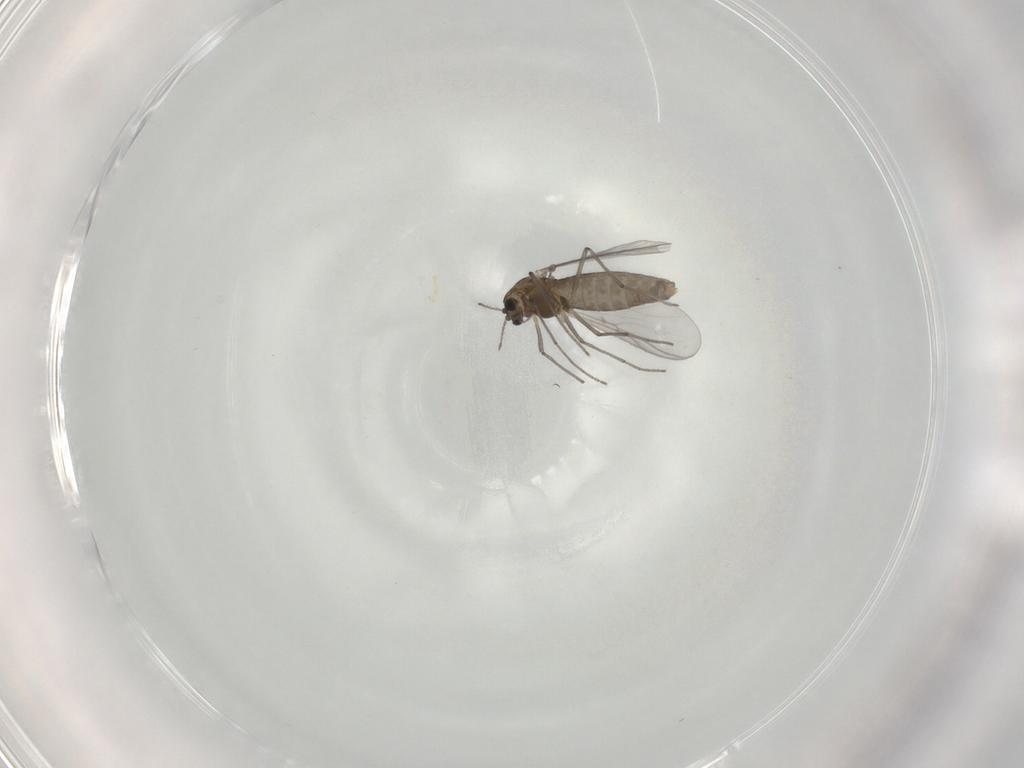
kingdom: Animalia
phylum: Arthropoda
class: Insecta
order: Diptera
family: Chironomidae
